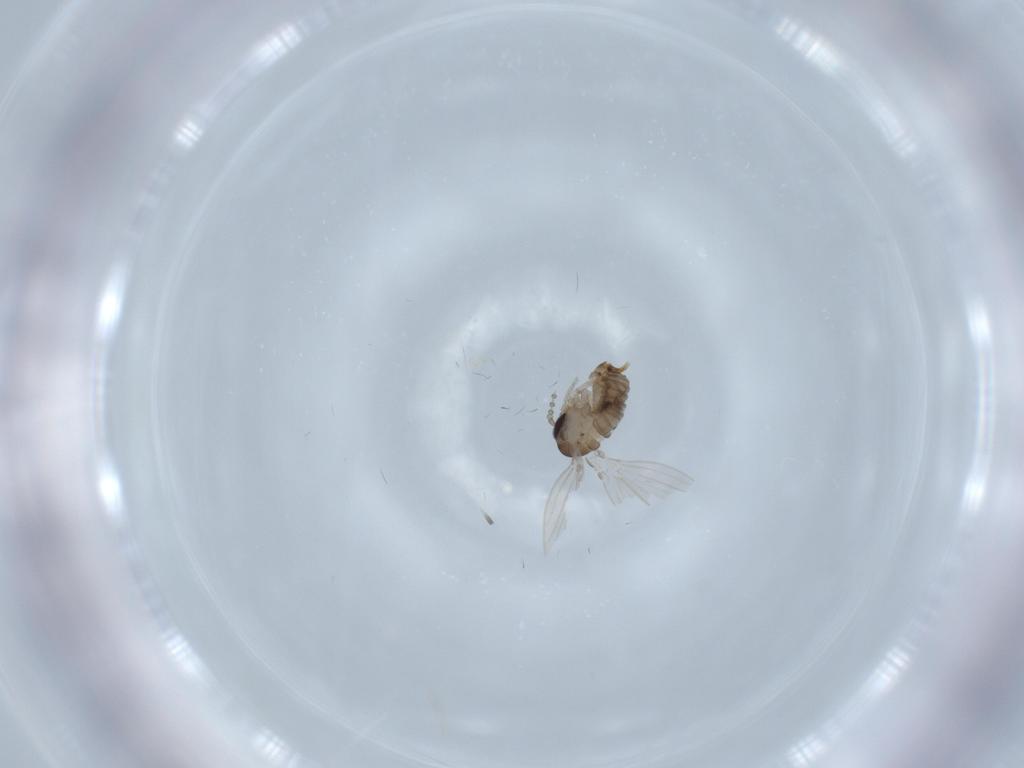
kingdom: Animalia
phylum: Arthropoda
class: Insecta
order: Diptera
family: Psychodidae
